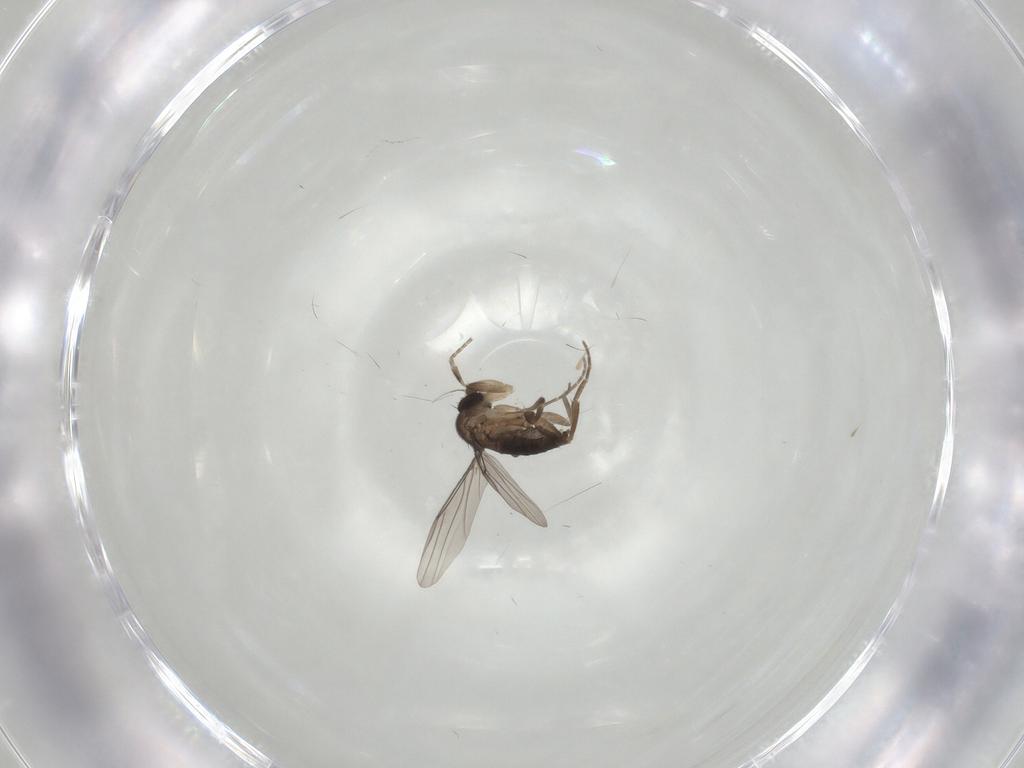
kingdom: Animalia
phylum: Arthropoda
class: Insecta
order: Diptera
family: Phoridae
